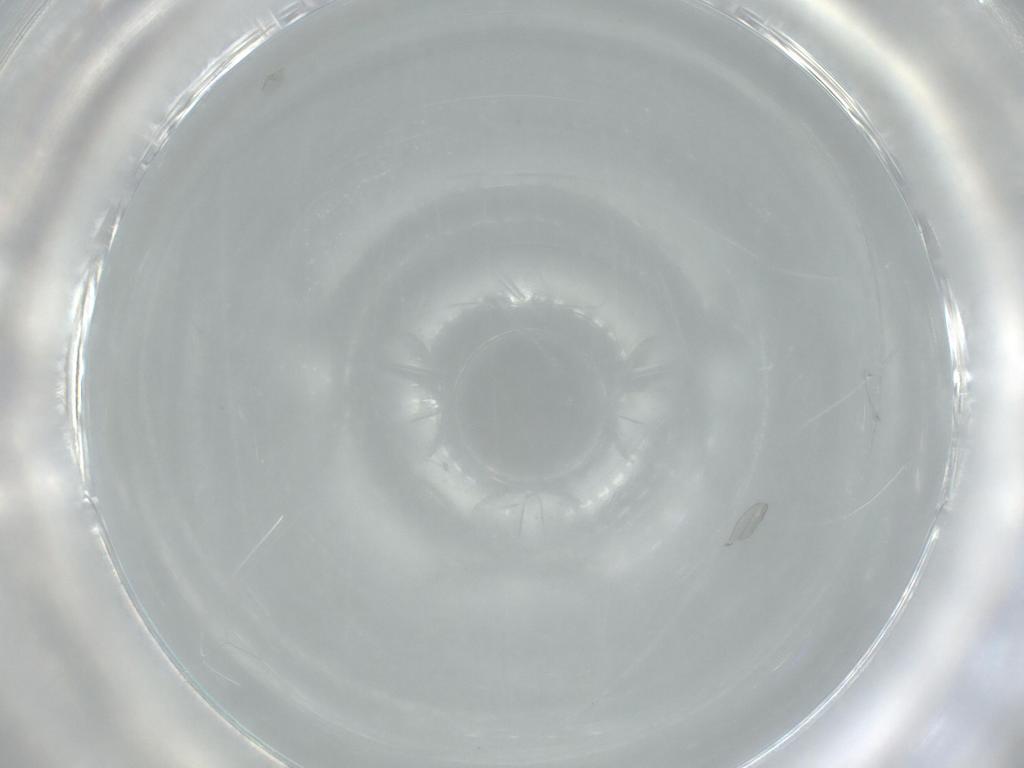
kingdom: Animalia
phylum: Arthropoda
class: Insecta
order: Diptera
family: Cecidomyiidae
